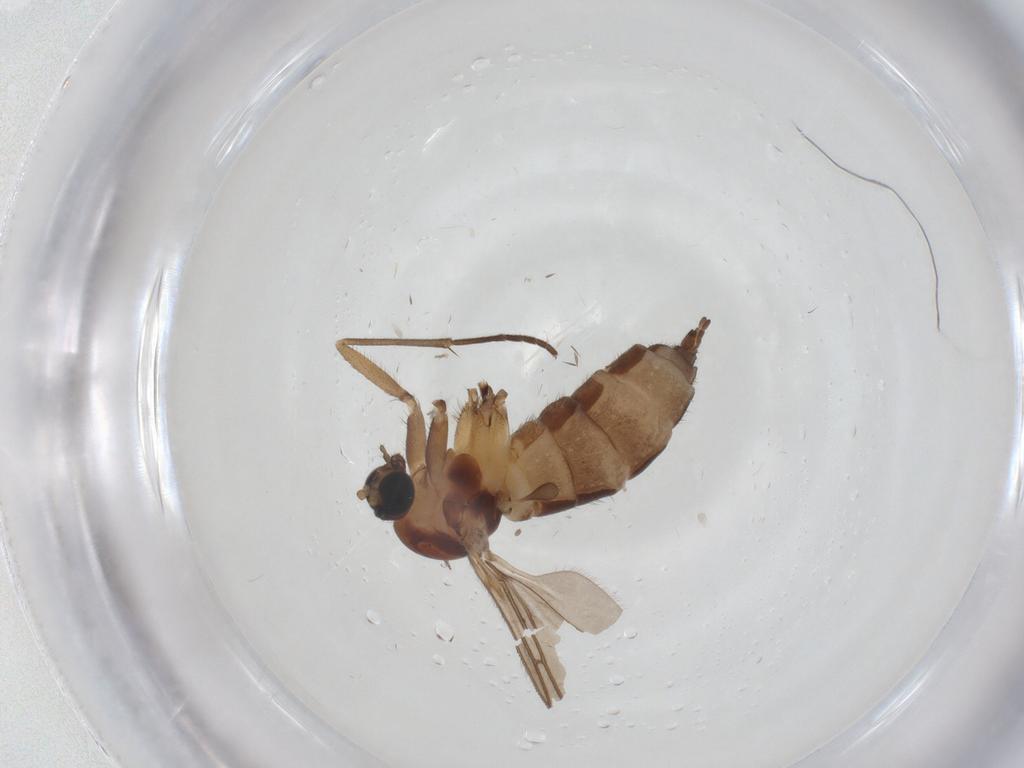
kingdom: Animalia
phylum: Arthropoda
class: Insecta
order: Diptera
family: Sciaridae
